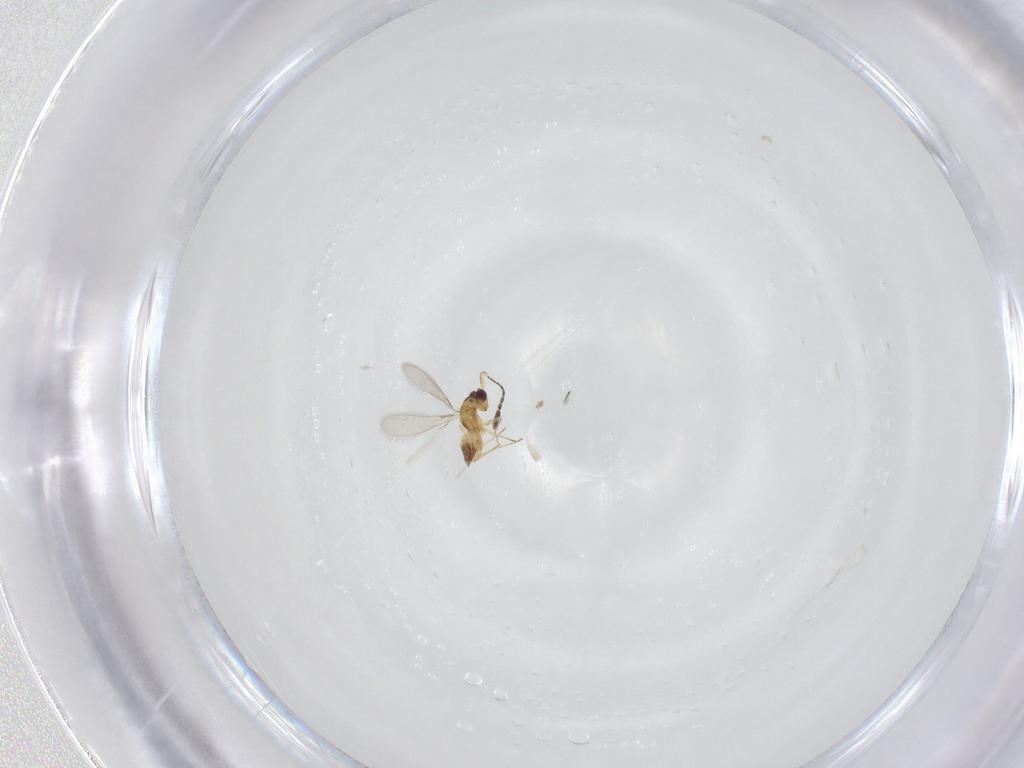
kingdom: Animalia
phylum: Arthropoda
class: Insecta
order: Hymenoptera
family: Mymaridae
